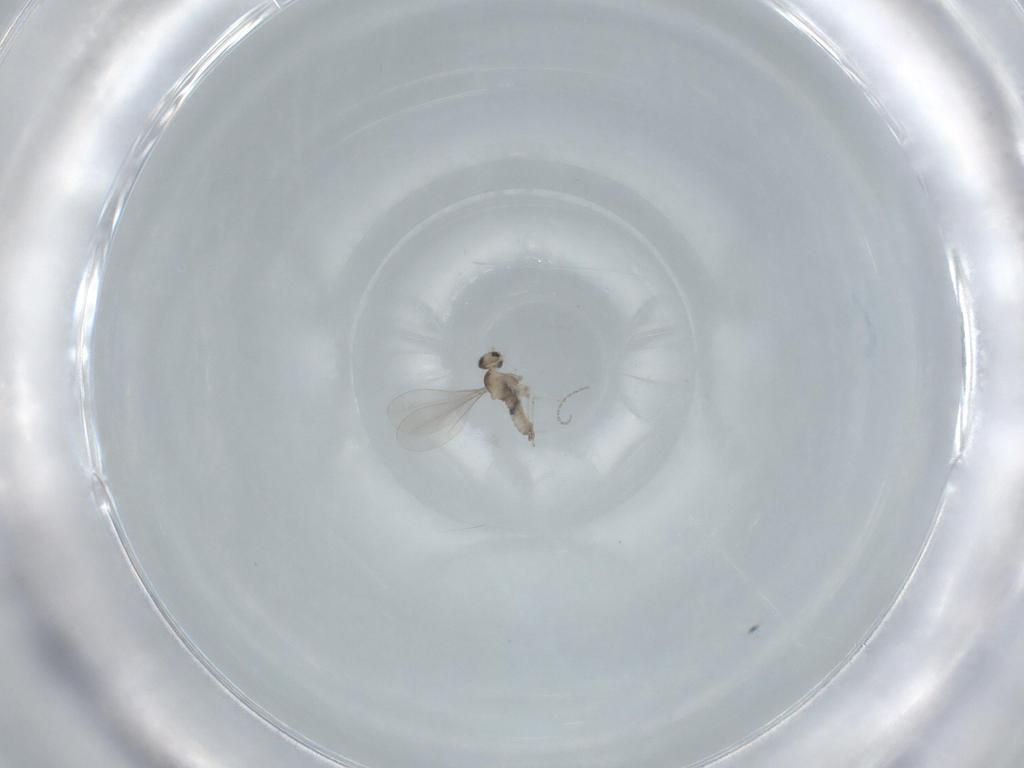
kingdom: Animalia
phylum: Arthropoda
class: Insecta
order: Diptera
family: Cecidomyiidae
